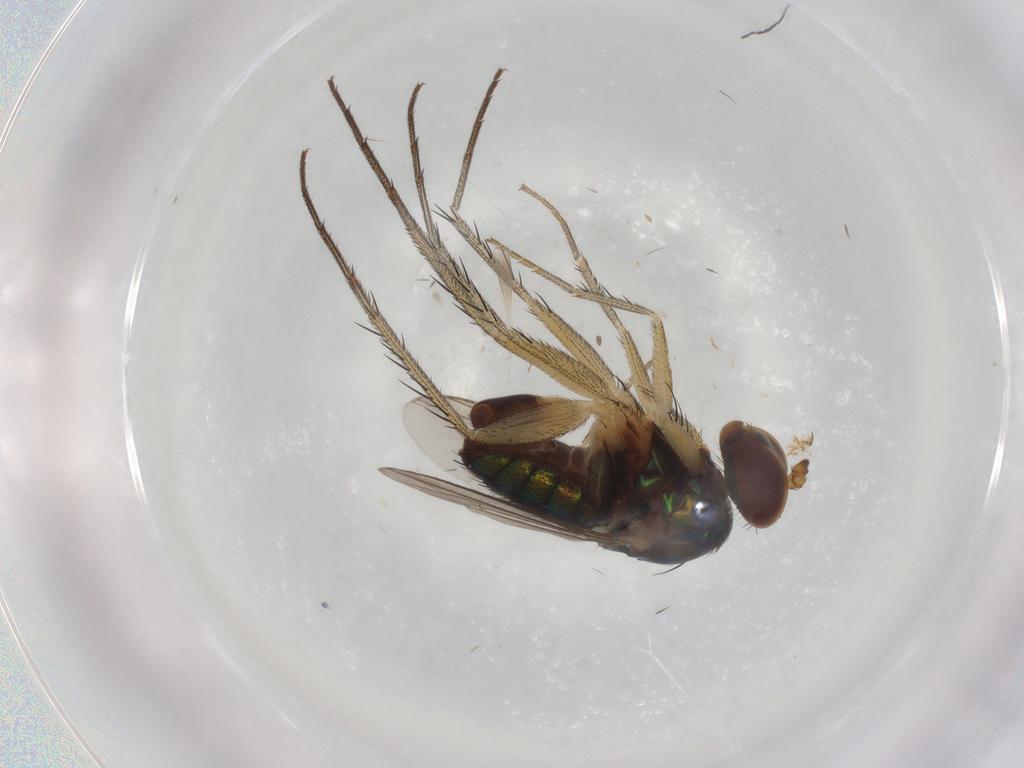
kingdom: Animalia
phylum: Arthropoda
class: Insecta
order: Diptera
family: Dolichopodidae
